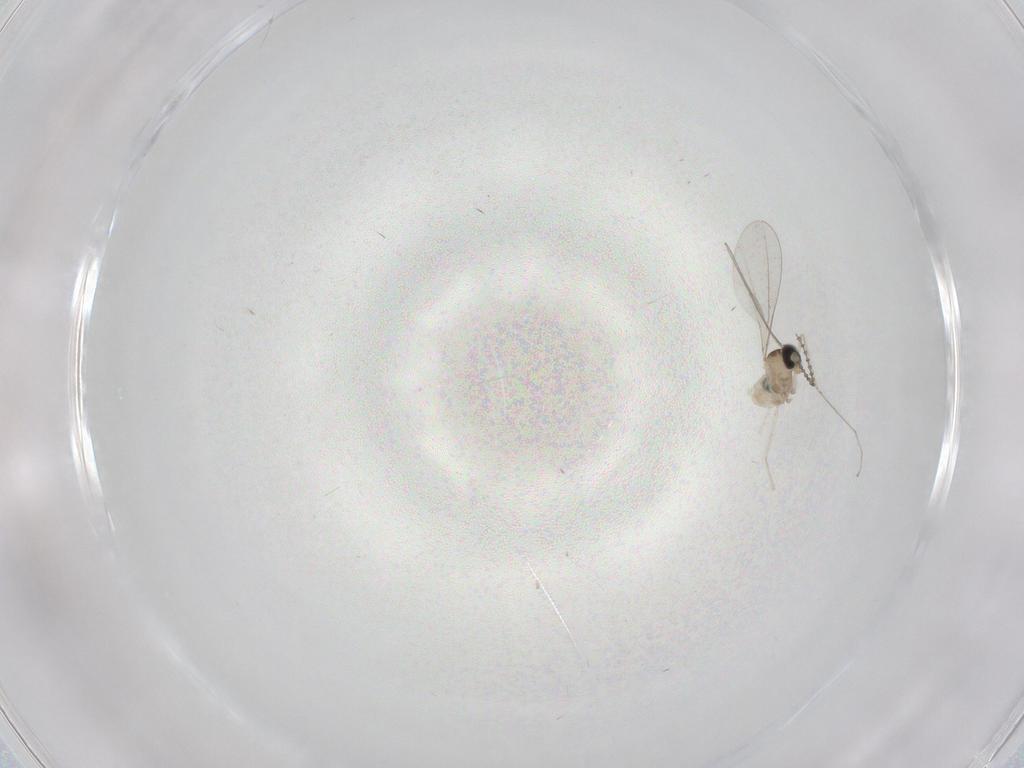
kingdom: Animalia
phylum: Arthropoda
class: Insecta
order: Diptera
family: Cecidomyiidae
